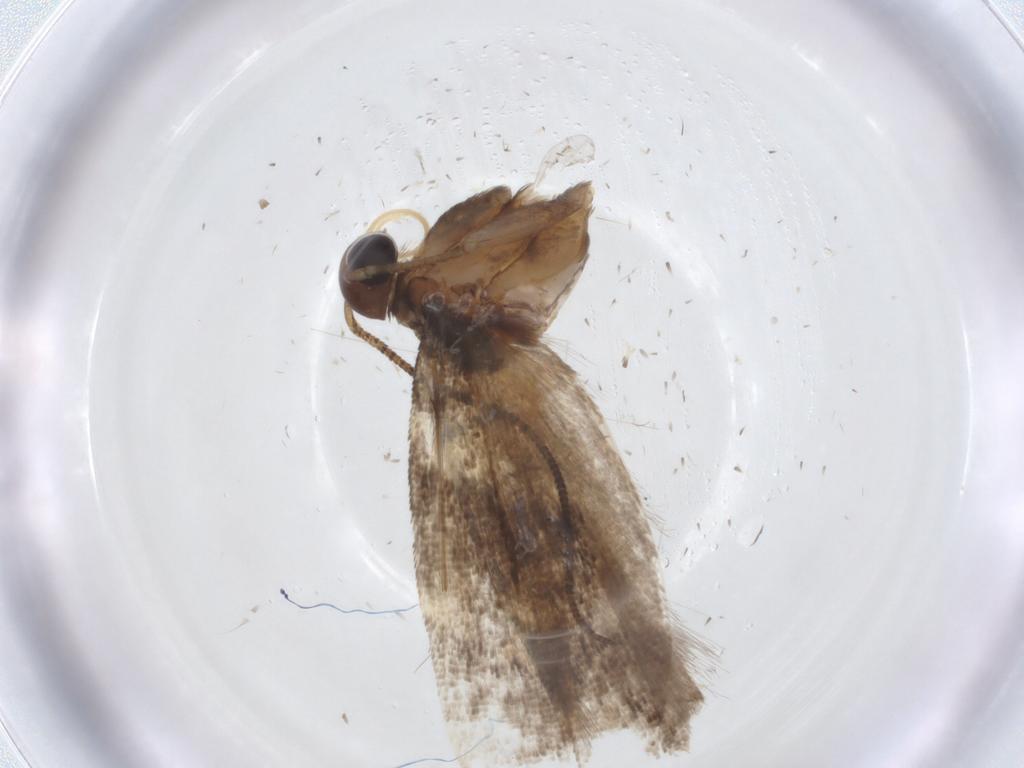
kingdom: Animalia
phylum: Arthropoda
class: Insecta
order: Lepidoptera
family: Gelechiidae
